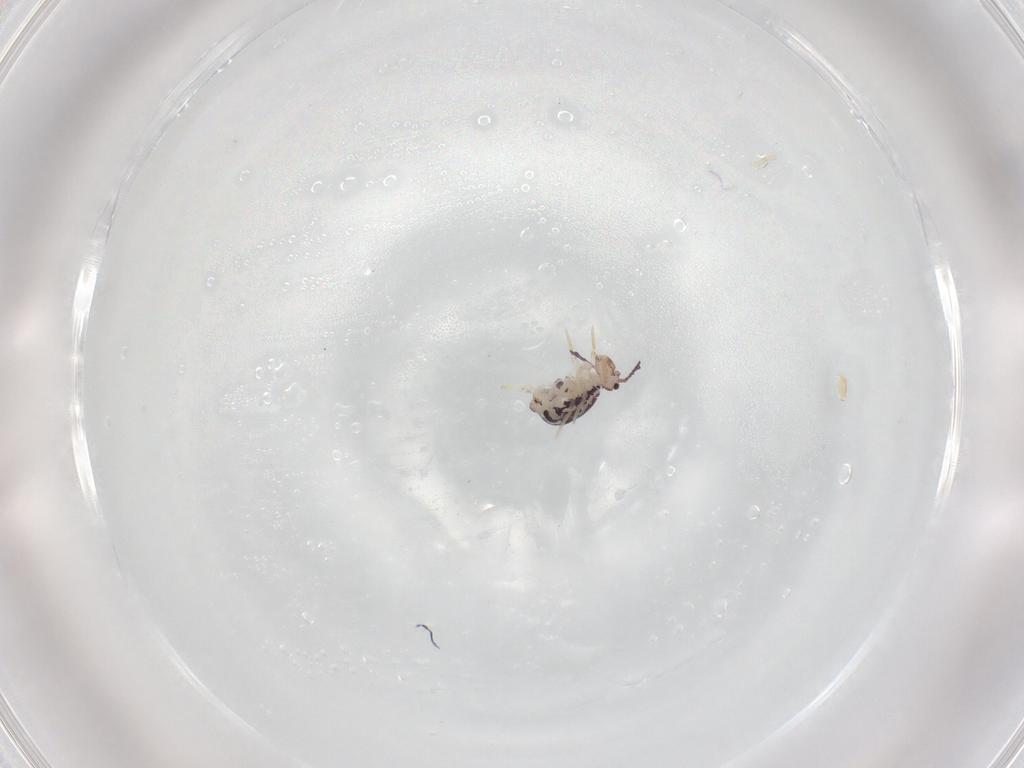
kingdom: Animalia
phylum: Arthropoda
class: Collembola
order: Symphypleona
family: Dicyrtomidae
